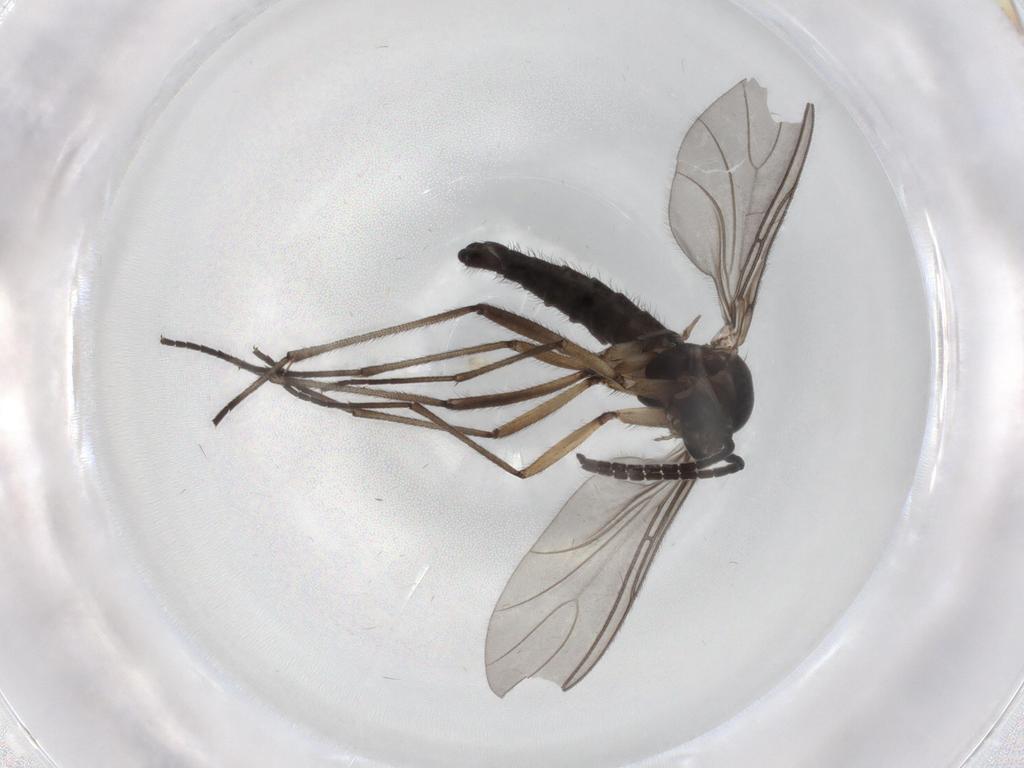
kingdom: Animalia
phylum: Arthropoda
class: Insecta
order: Diptera
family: Sciaridae
